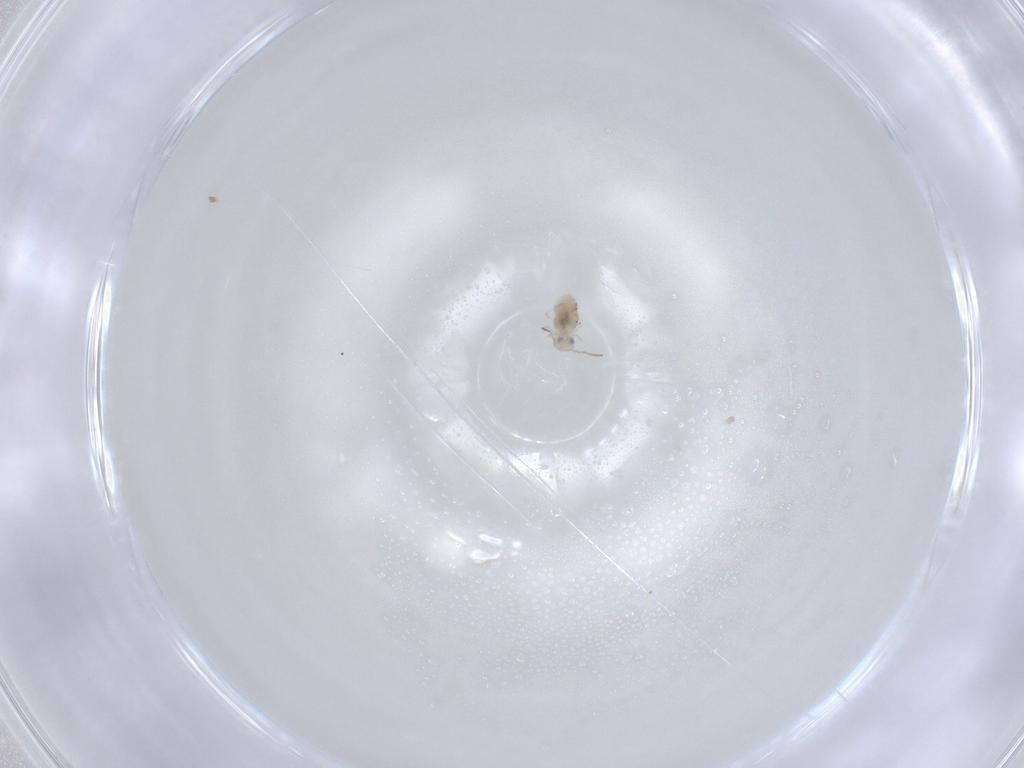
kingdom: Animalia
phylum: Arthropoda
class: Collembola
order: Symphypleona
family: Bourletiellidae
